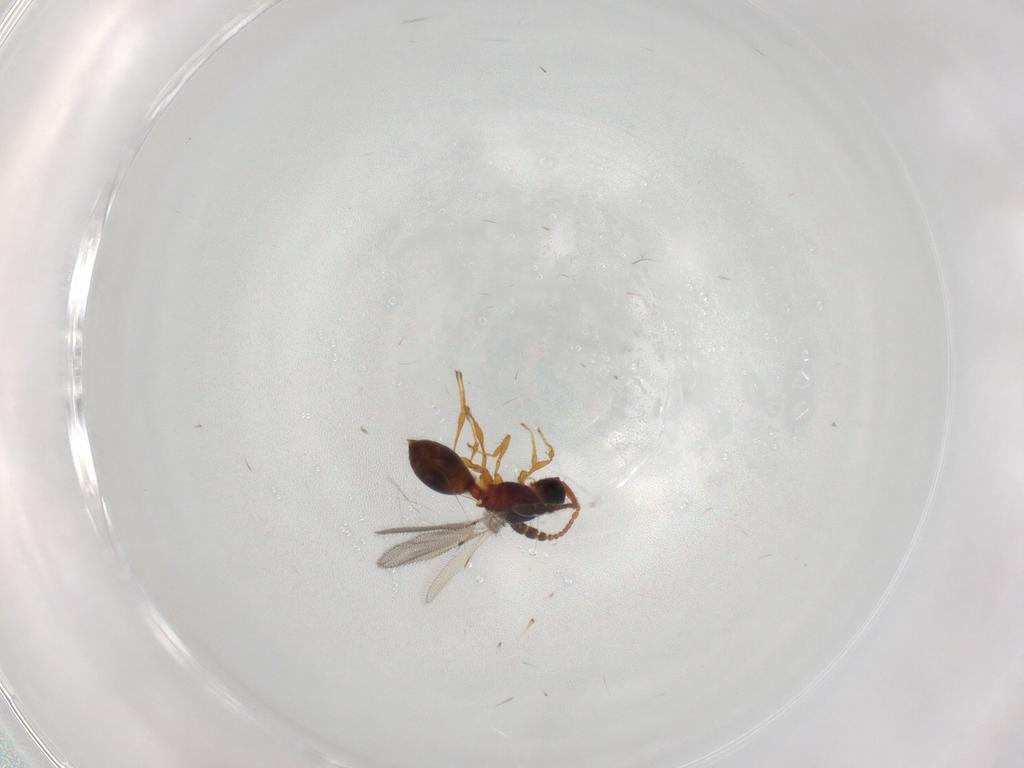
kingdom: Animalia
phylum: Arthropoda
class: Insecta
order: Hymenoptera
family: Diapriidae
